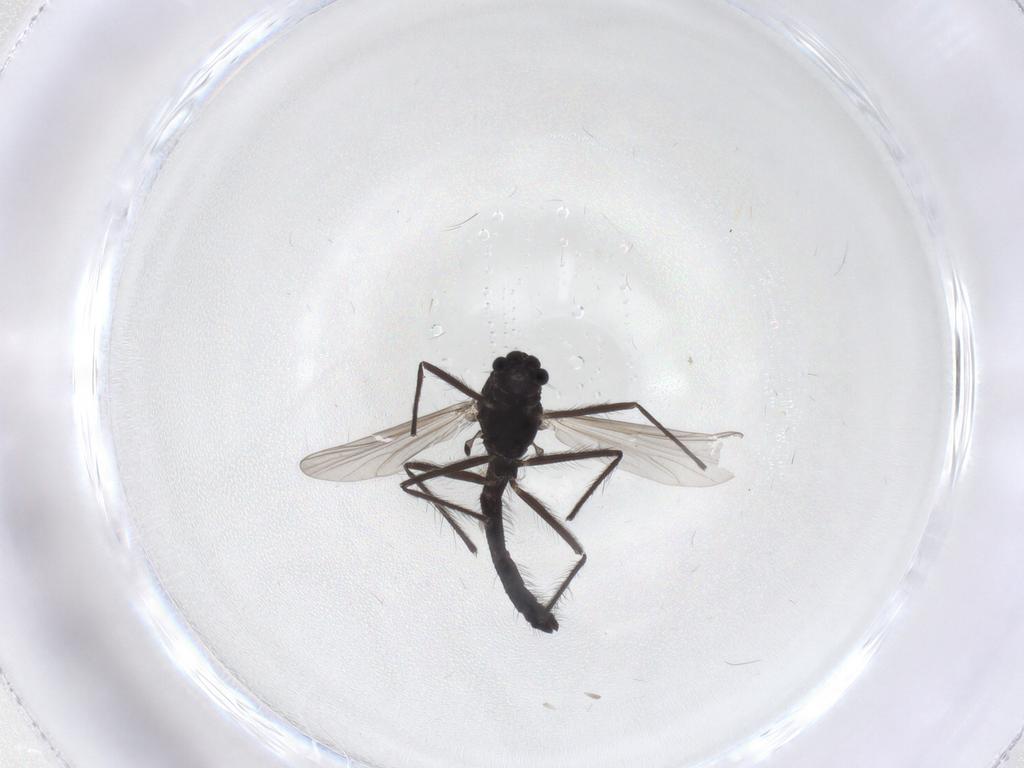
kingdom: Animalia
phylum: Arthropoda
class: Insecta
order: Diptera
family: Chironomidae
